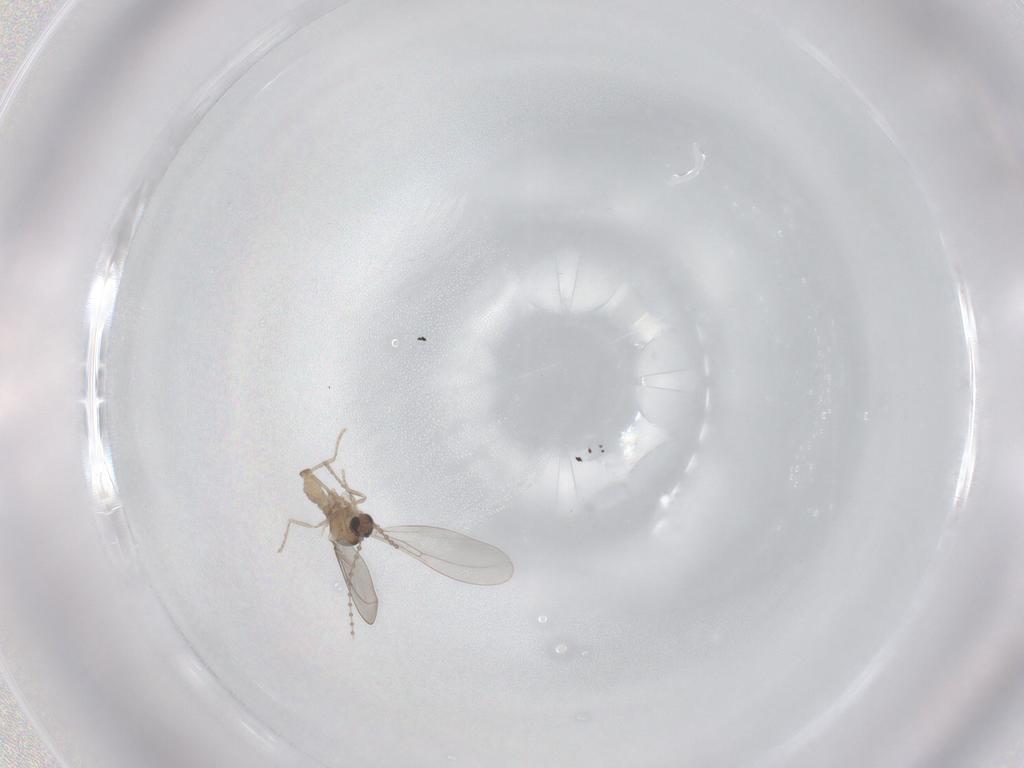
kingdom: Animalia
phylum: Arthropoda
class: Insecta
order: Diptera
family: Cecidomyiidae
